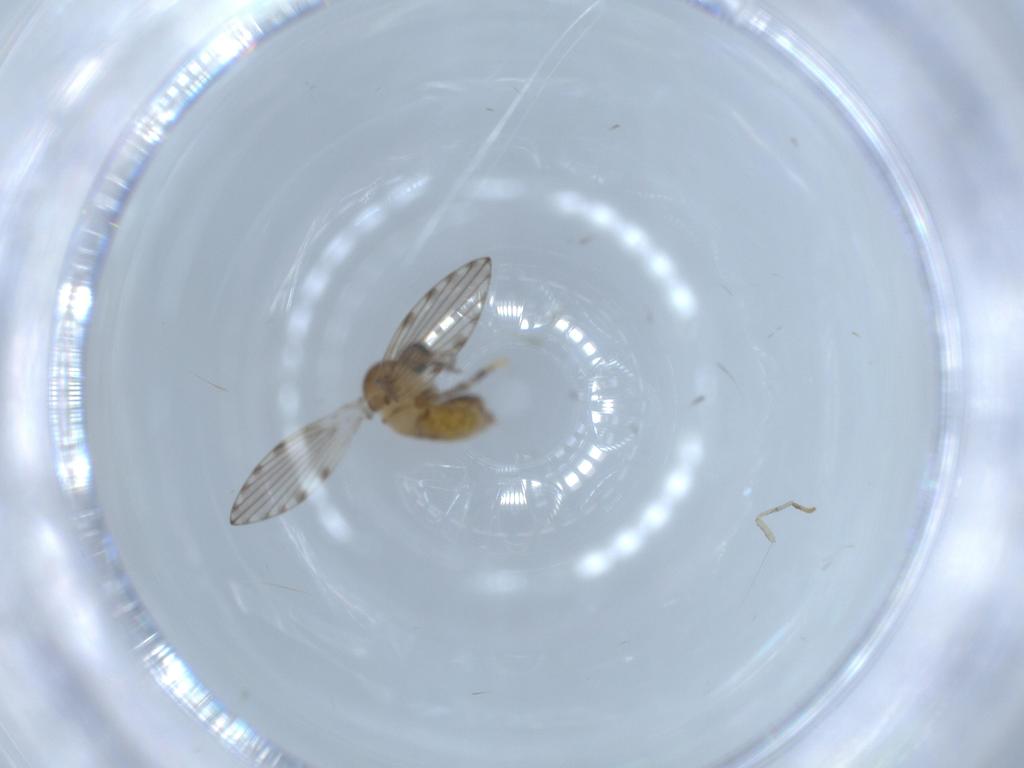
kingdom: Animalia
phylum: Arthropoda
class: Insecta
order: Diptera
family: Psychodidae
